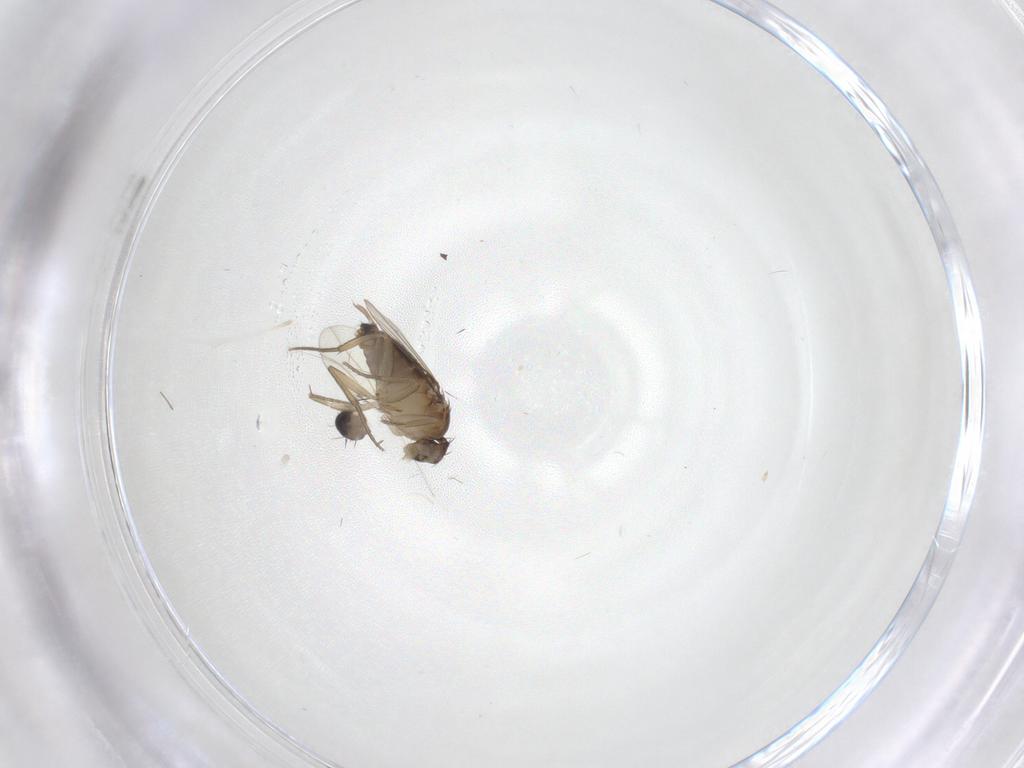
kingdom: Animalia
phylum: Arthropoda
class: Insecta
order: Diptera
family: Sciaridae
